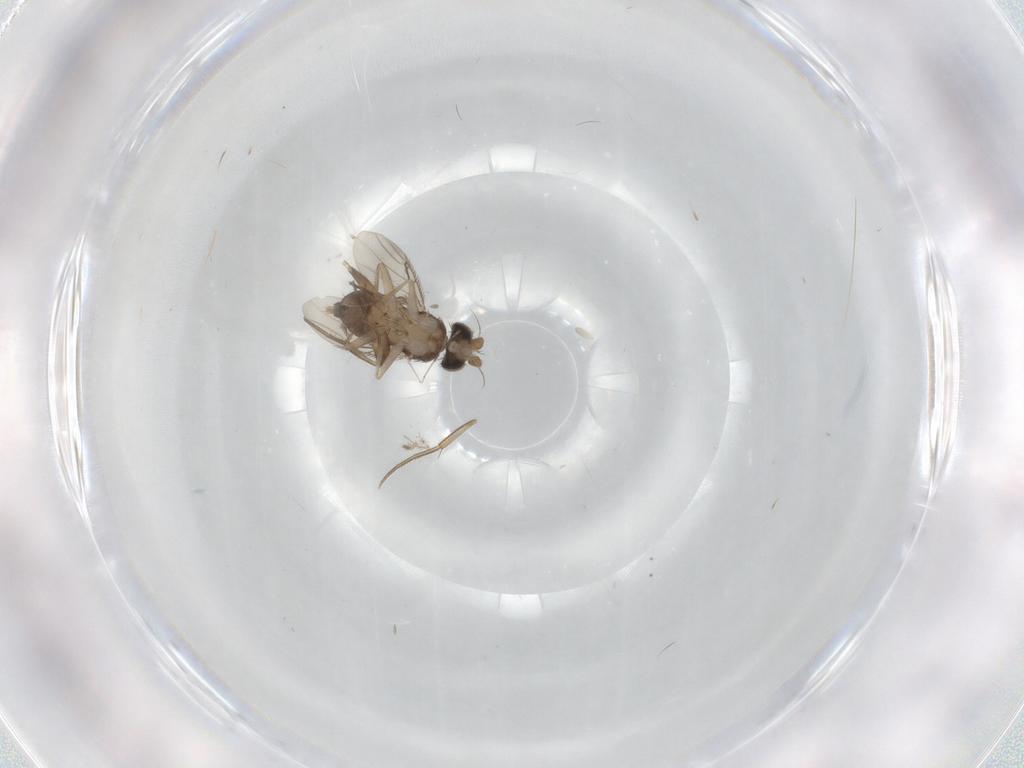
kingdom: Animalia
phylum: Arthropoda
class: Insecta
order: Diptera
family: Phoridae
